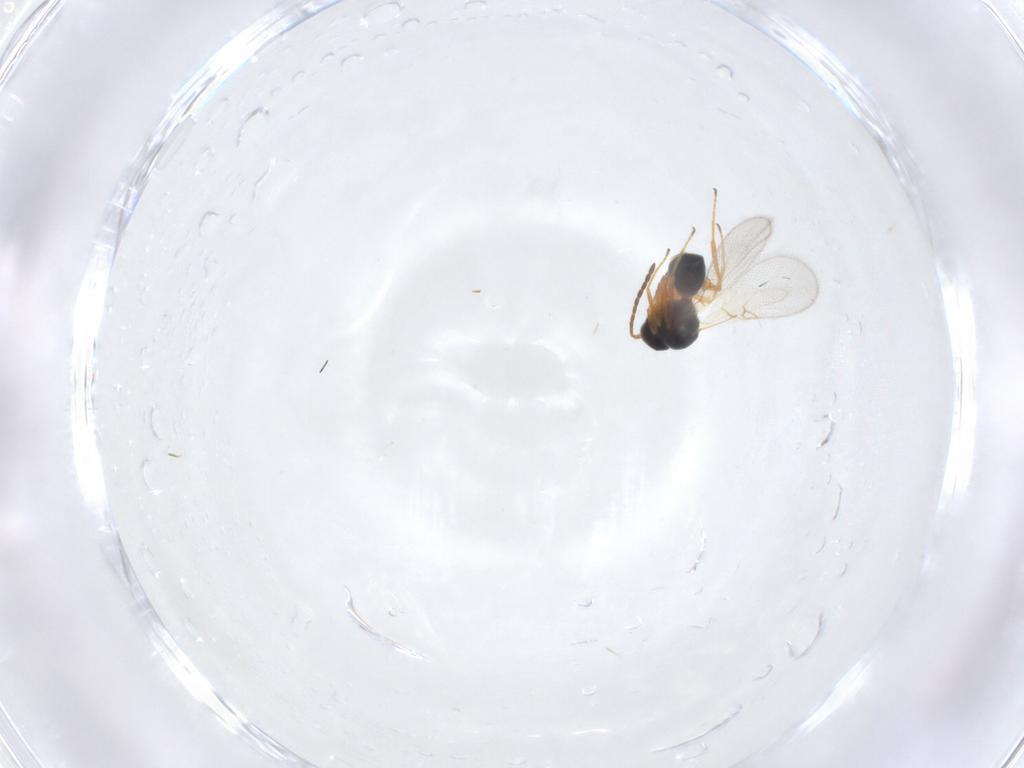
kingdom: Animalia
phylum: Arthropoda
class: Insecta
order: Hymenoptera
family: Figitidae
